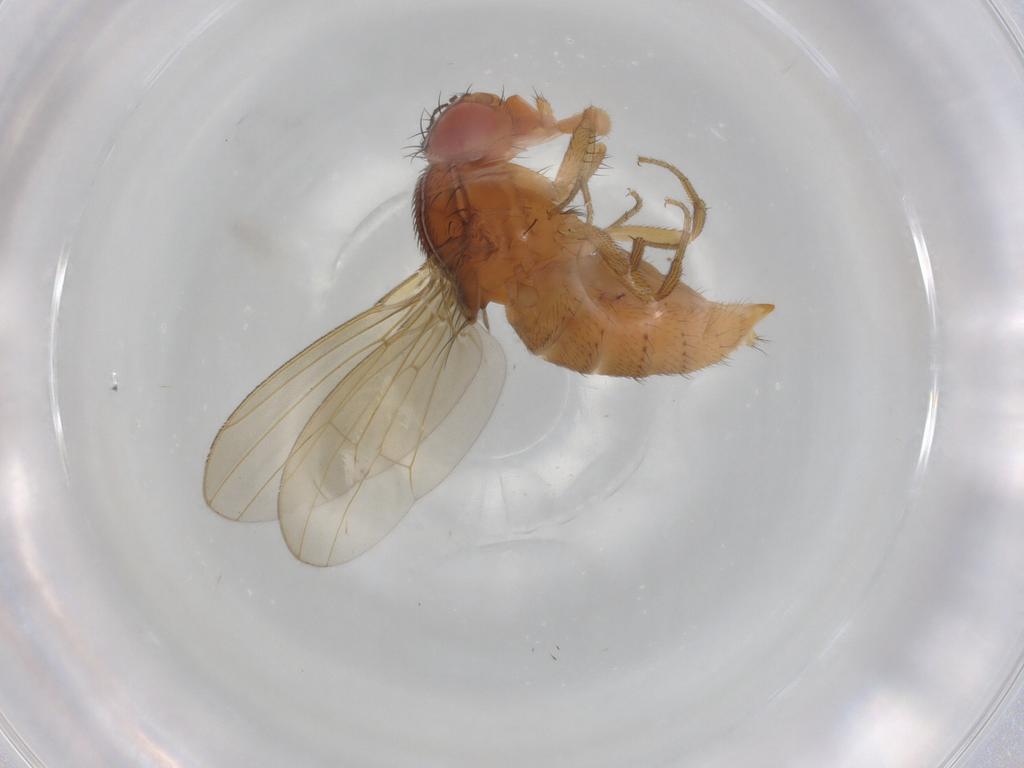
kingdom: Animalia
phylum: Arthropoda
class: Insecta
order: Diptera
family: Drosophilidae
